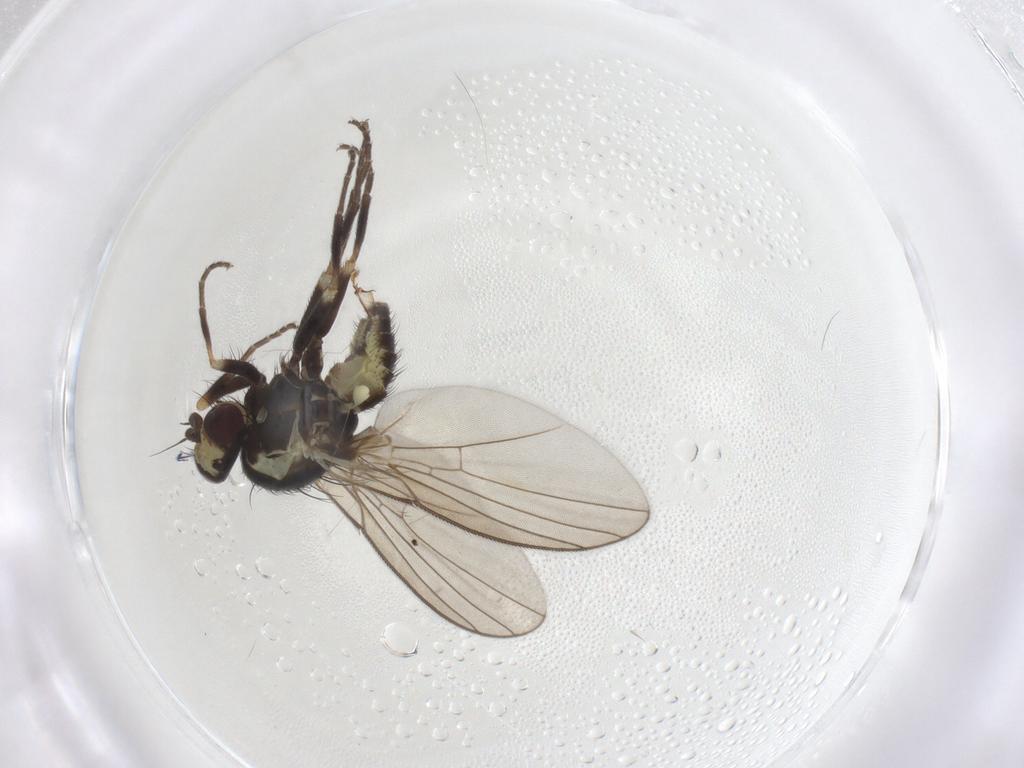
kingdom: Animalia
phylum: Arthropoda
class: Insecta
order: Diptera
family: Agromyzidae
